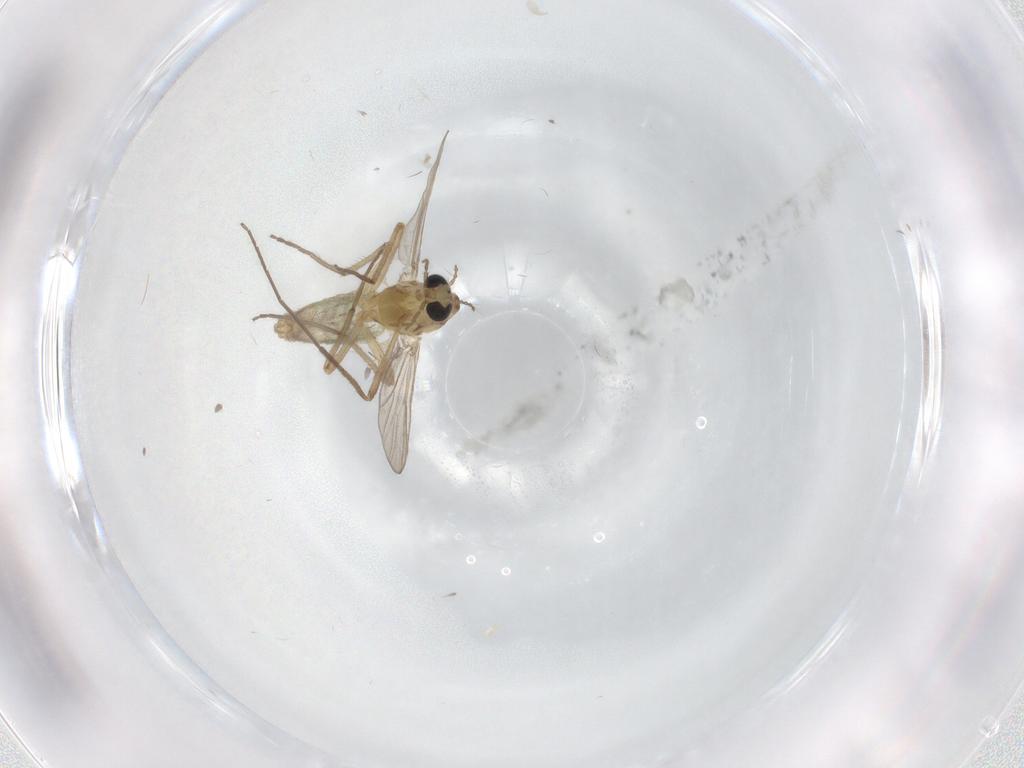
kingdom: Animalia
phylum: Arthropoda
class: Insecta
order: Diptera
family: Chironomidae
